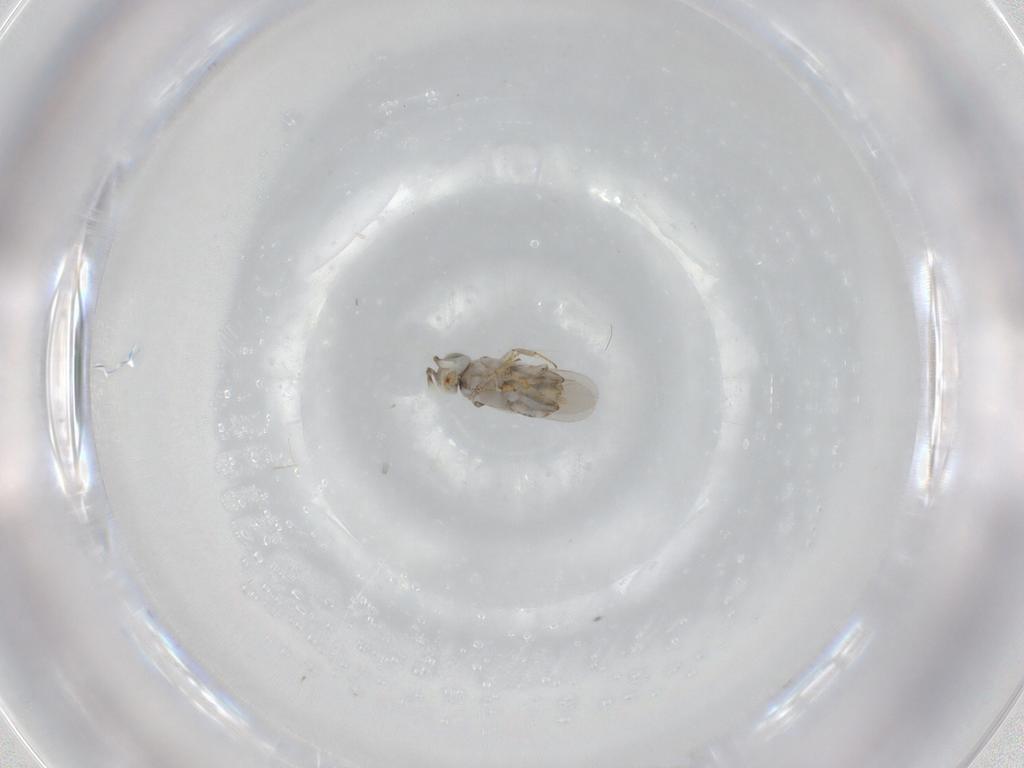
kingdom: Animalia
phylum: Arthropoda
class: Insecta
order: Hymenoptera
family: Encyrtidae
